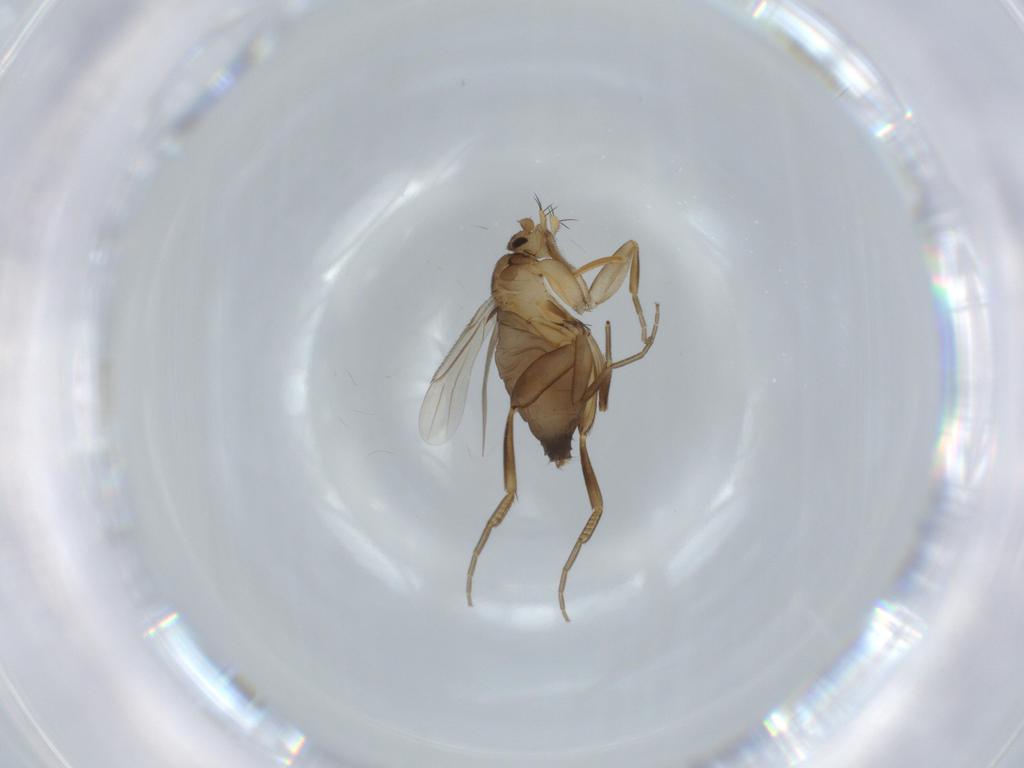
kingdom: Animalia
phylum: Arthropoda
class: Insecta
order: Diptera
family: Phoridae
